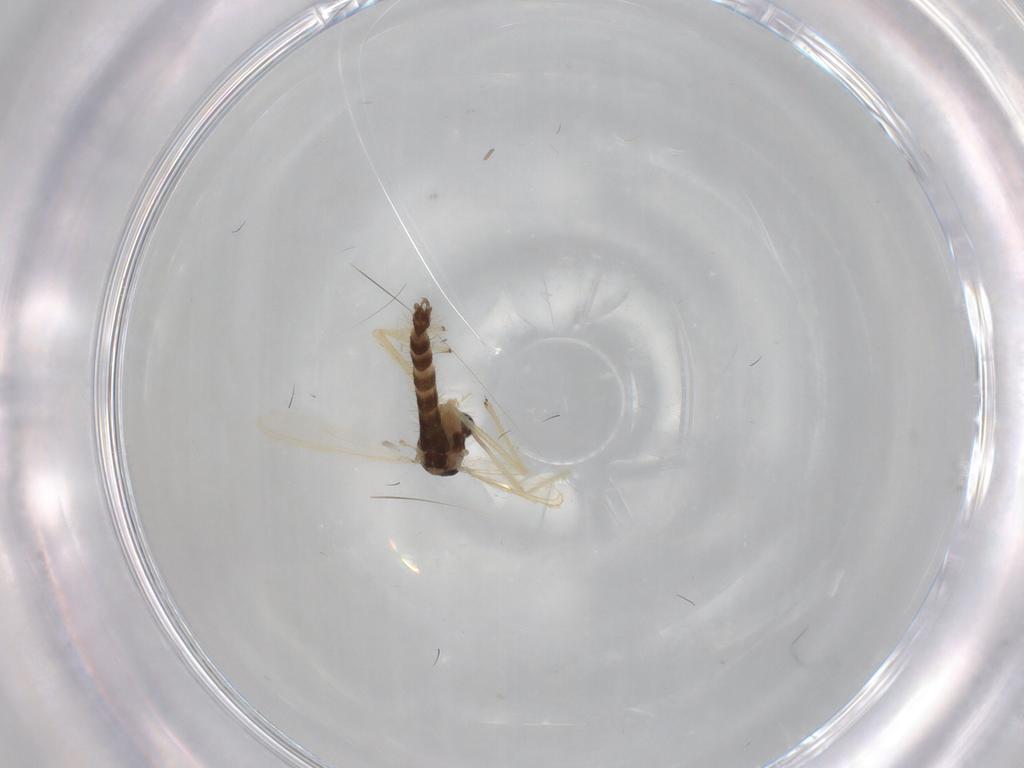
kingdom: Animalia
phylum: Arthropoda
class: Insecta
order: Diptera
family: Chironomidae
